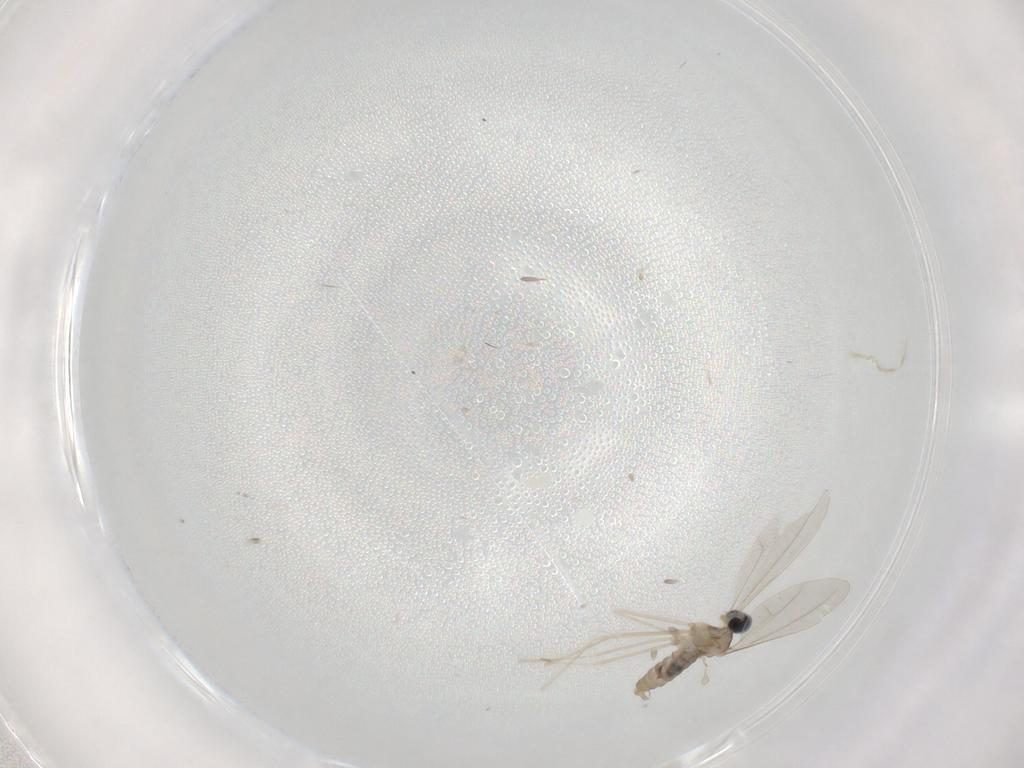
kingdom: Animalia
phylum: Arthropoda
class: Insecta
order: Diptera
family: Cecidomyiidae
